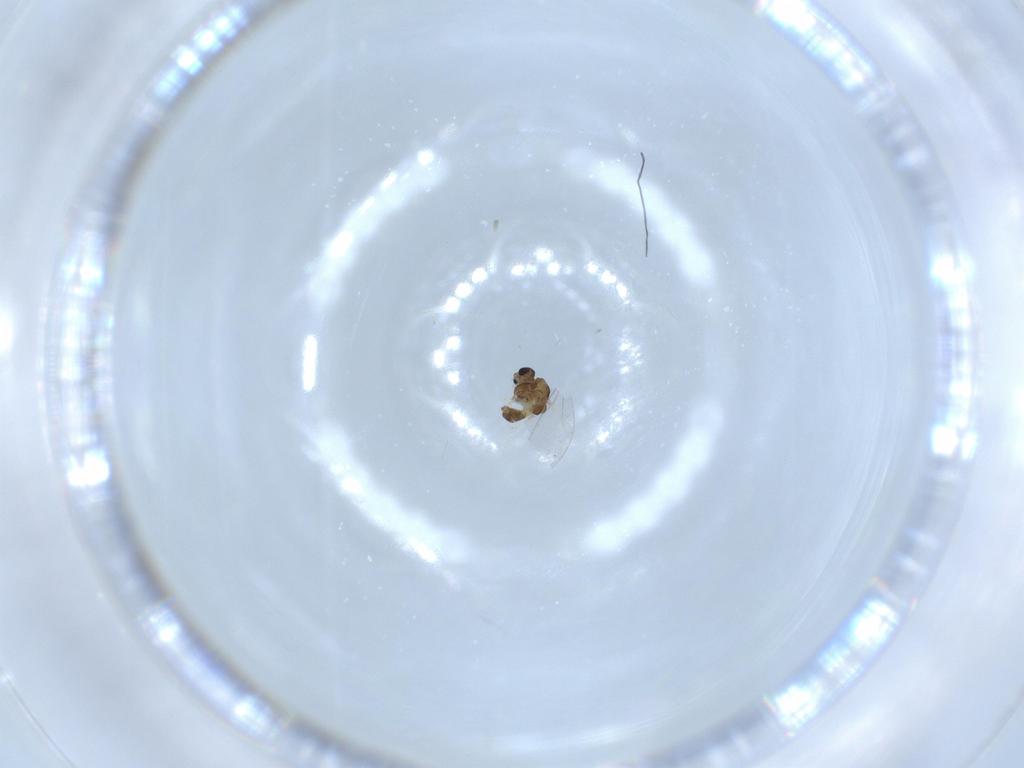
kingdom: Animalia
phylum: Arthropoda
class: Insecta
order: Diptera
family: Chironomidae
